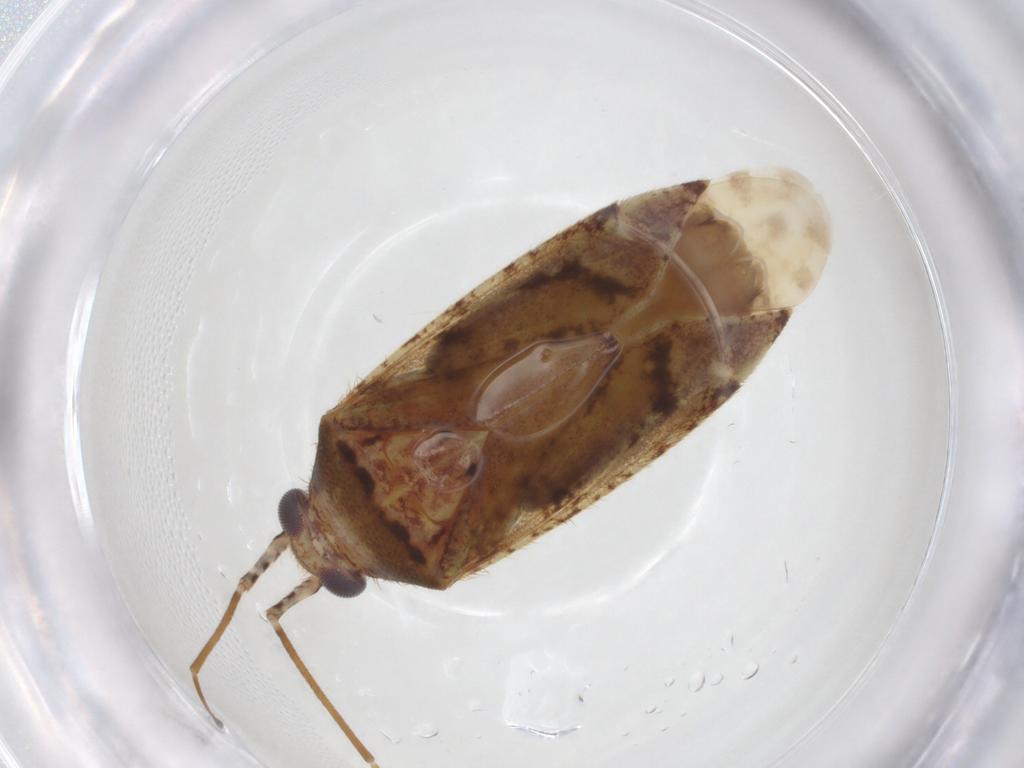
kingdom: Animalia
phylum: Arthropoda
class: Insecta
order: Hemiptera
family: Miridae
